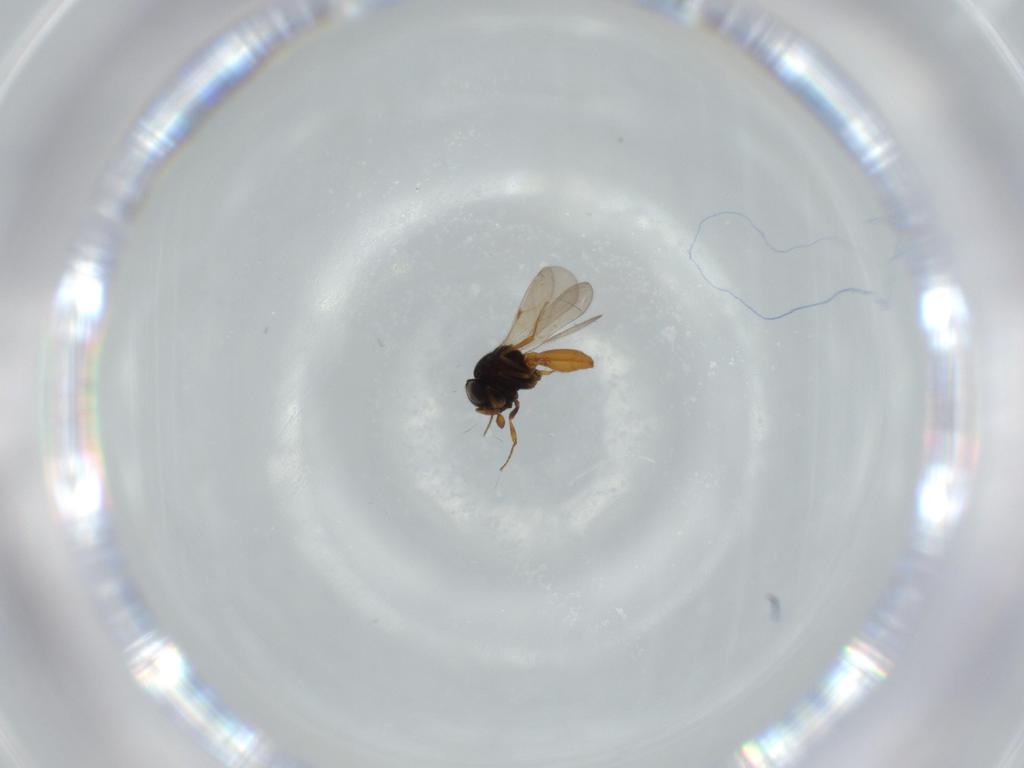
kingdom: Animalia
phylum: Arthropoda
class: Insecta
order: Hymenoptera
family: Scelionidae
